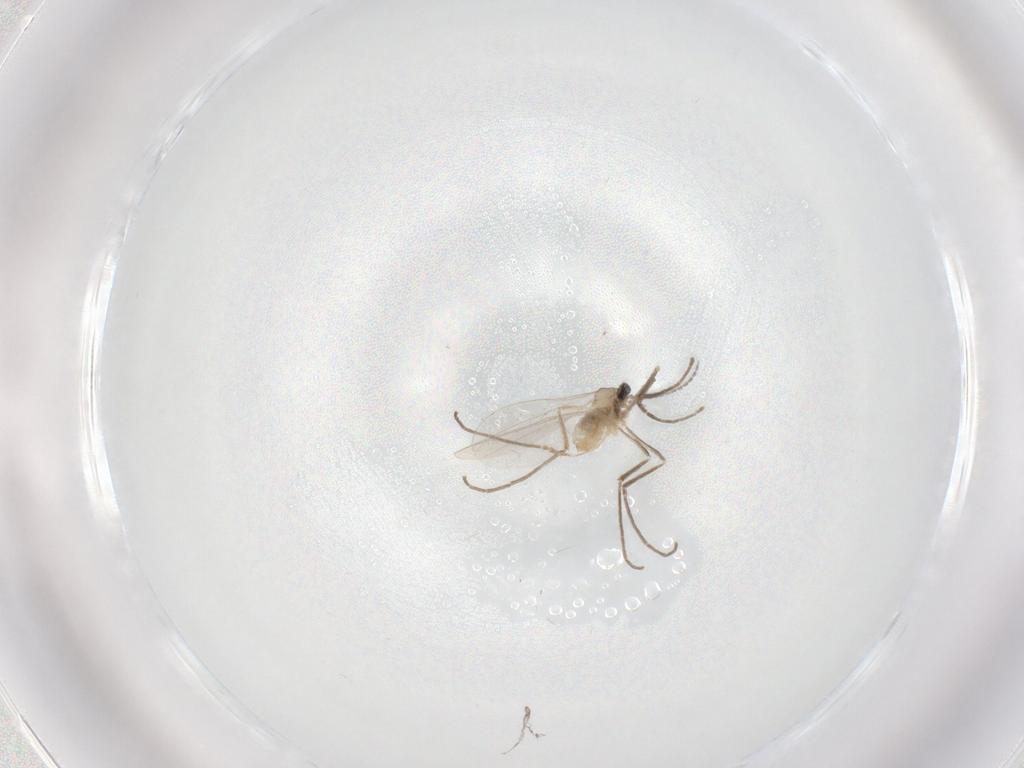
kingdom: Animalia
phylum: Arthropoda
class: Insecta
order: Diptera
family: Cecidomyiidae
